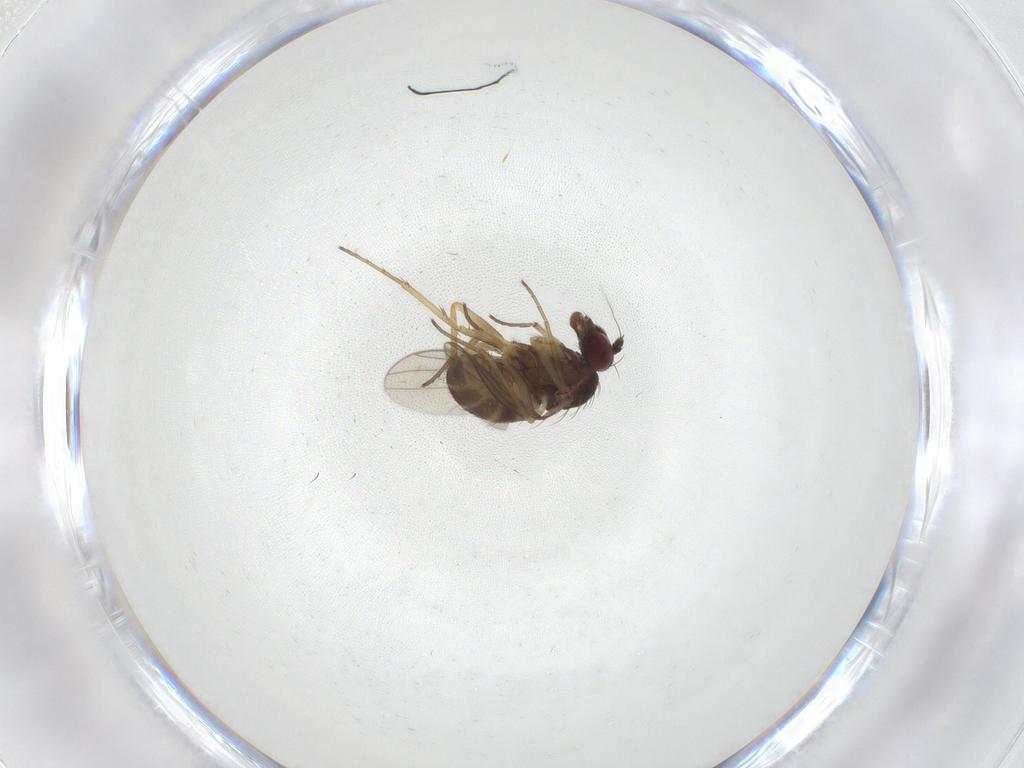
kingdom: Animalia
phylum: Arthropoda
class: Insecta
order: Diptera
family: Dolichopodidae
